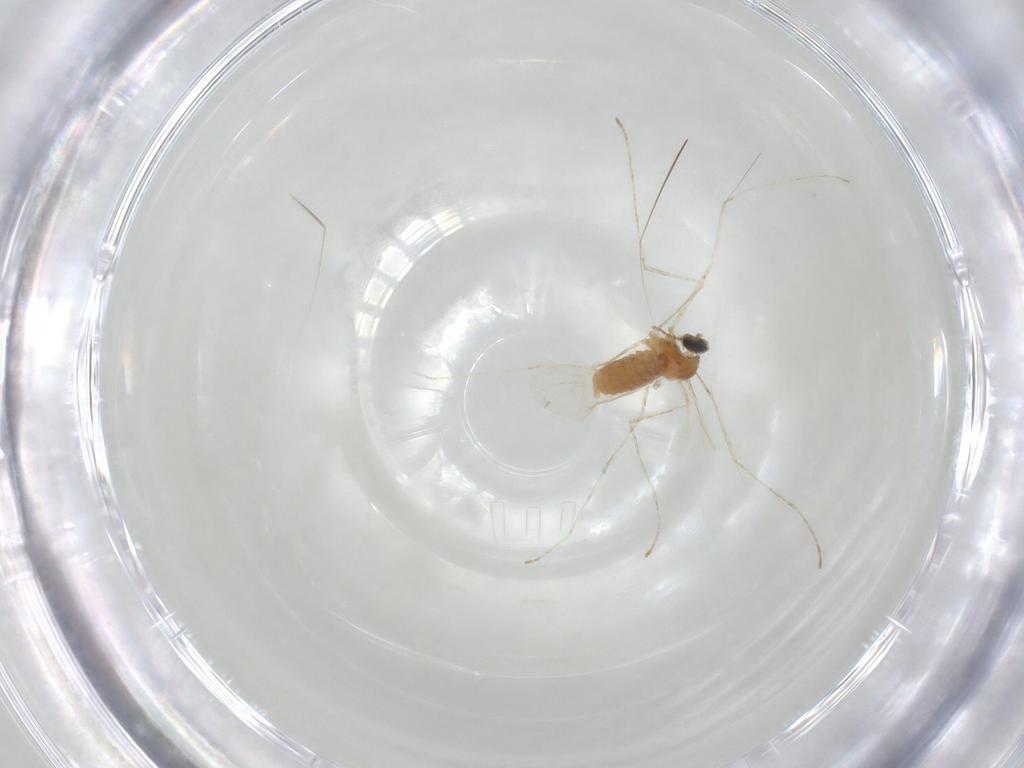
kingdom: Animalia
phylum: Arthropoda
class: Insecta
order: Diptera
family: Cecidomyiidae
